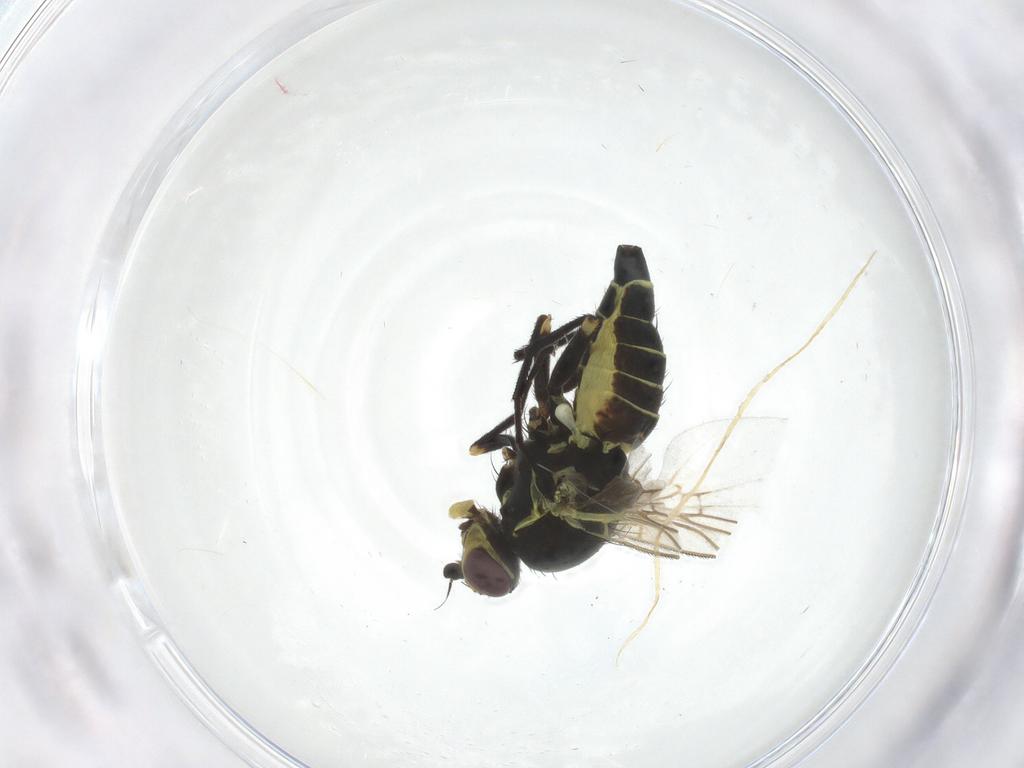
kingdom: Animalia
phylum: Arthropoda
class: Insecta
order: Diptera
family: Agromyzidae
